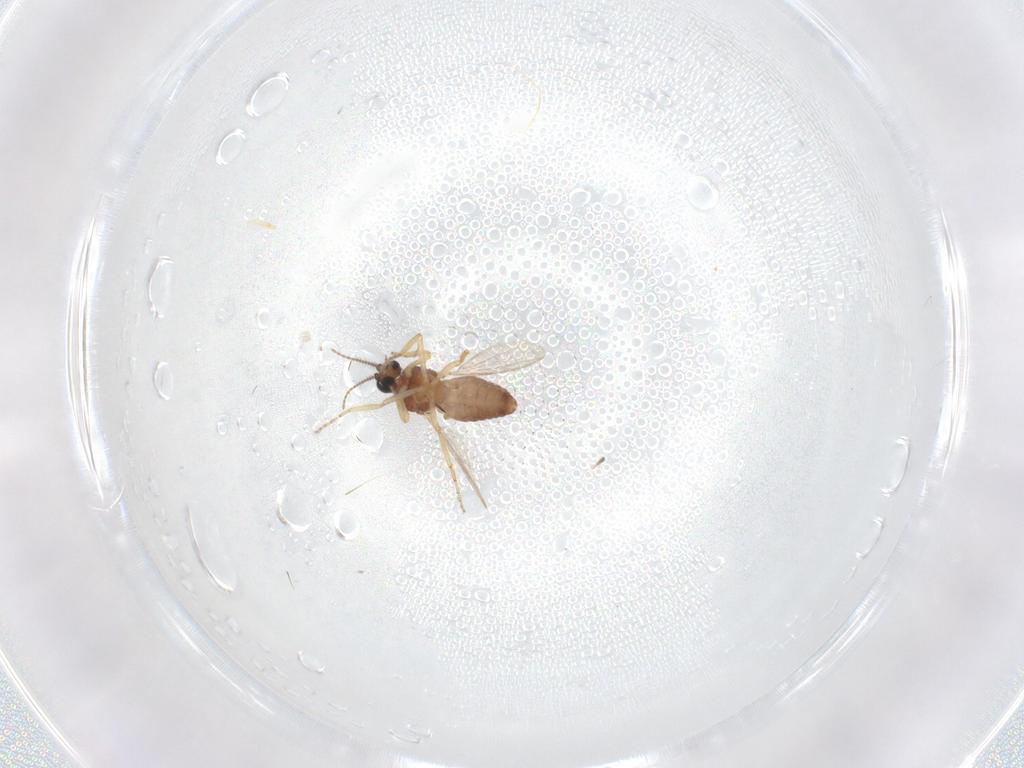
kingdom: Animalia
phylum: Arthropoda
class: Insecta
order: Diptera
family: Ceratopogonidae
